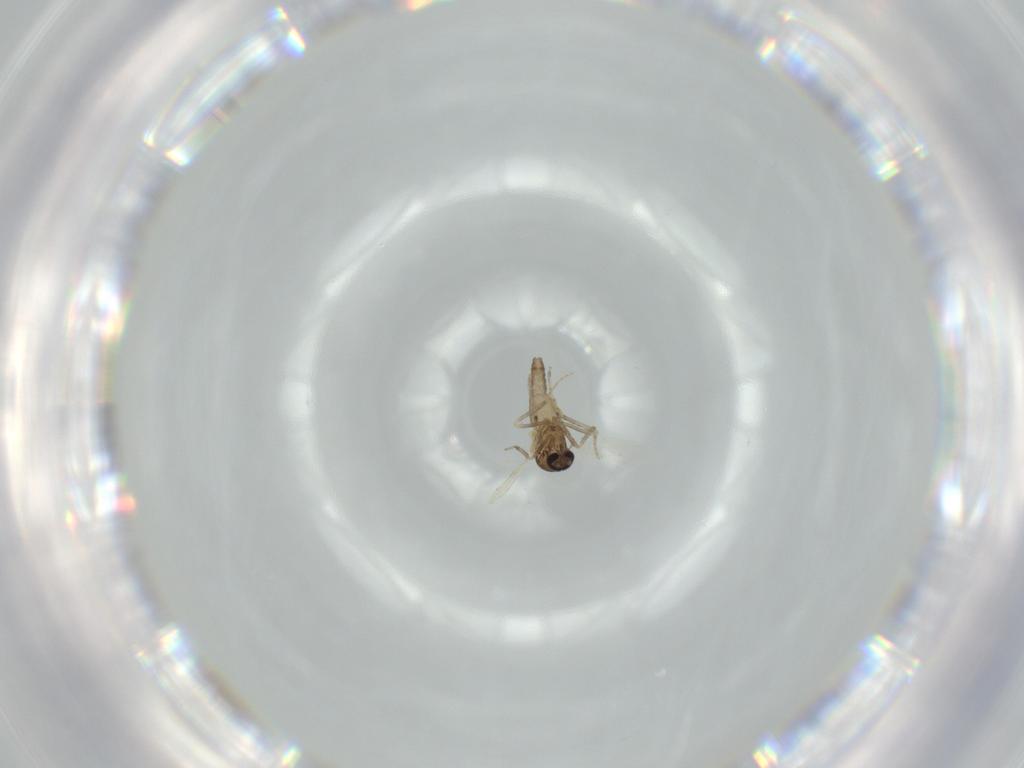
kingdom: Animalia
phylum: Arthropoda
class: Insecta
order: Diptera
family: Ceratopogonidae
